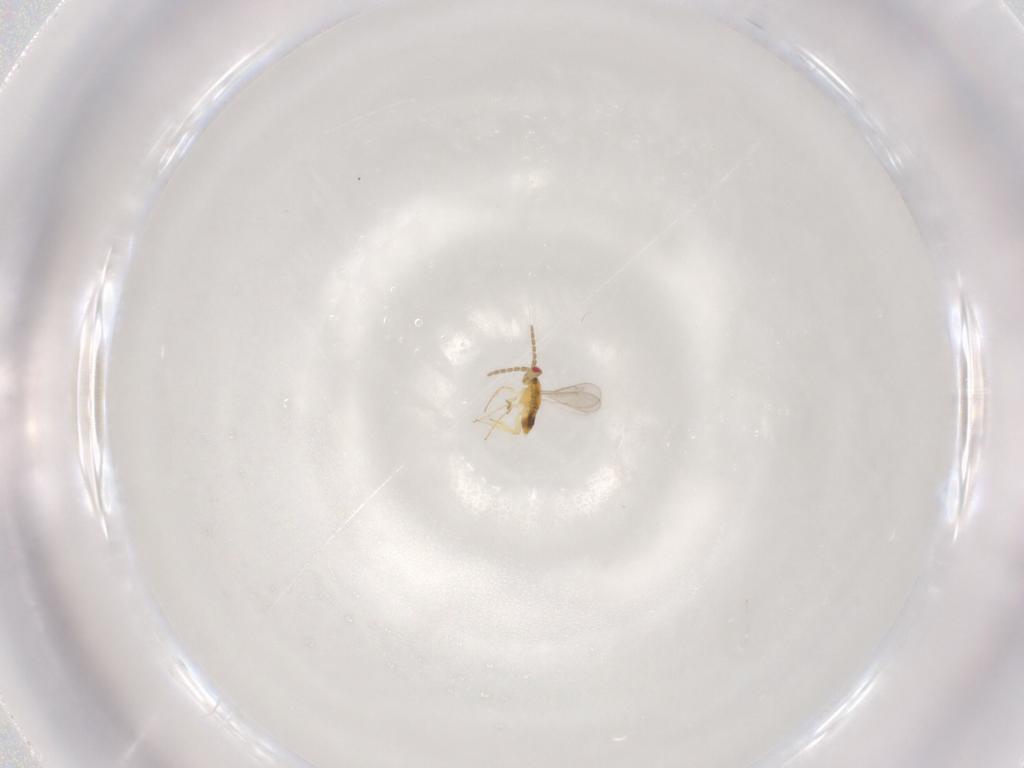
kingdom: Animalia
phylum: Arthropoda
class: Insecta
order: Hymenoptera
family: Aphelinidae
